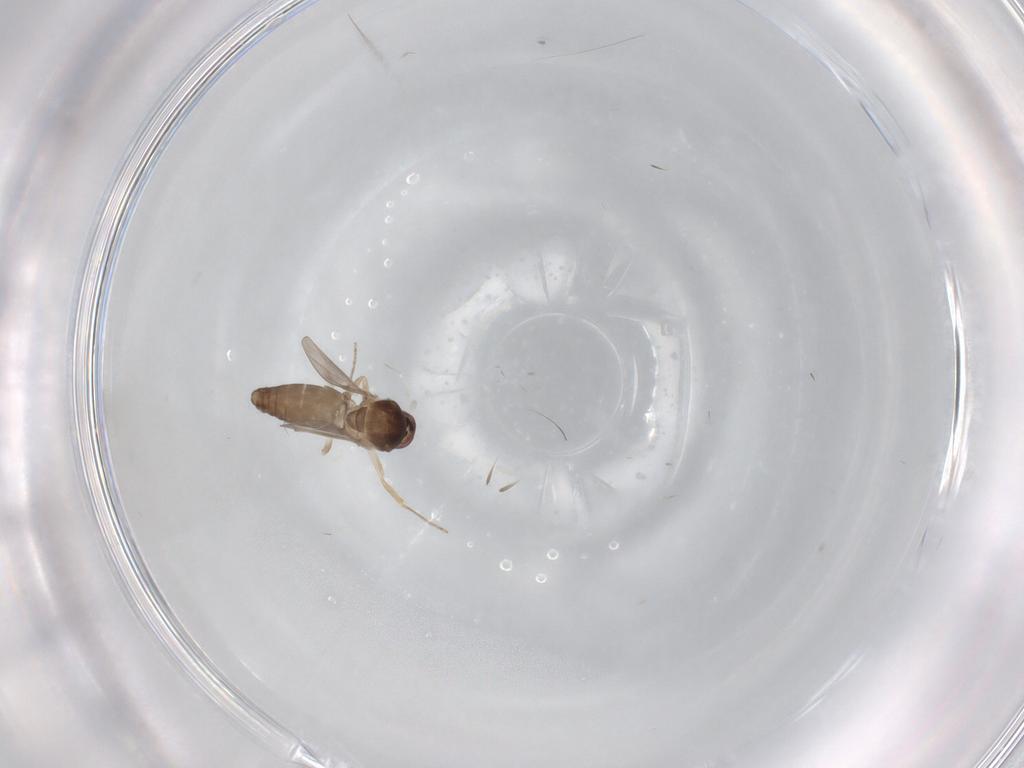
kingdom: Animalia
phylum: Arthropoda
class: Insecta
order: Diptera
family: Ceratopogonidae
